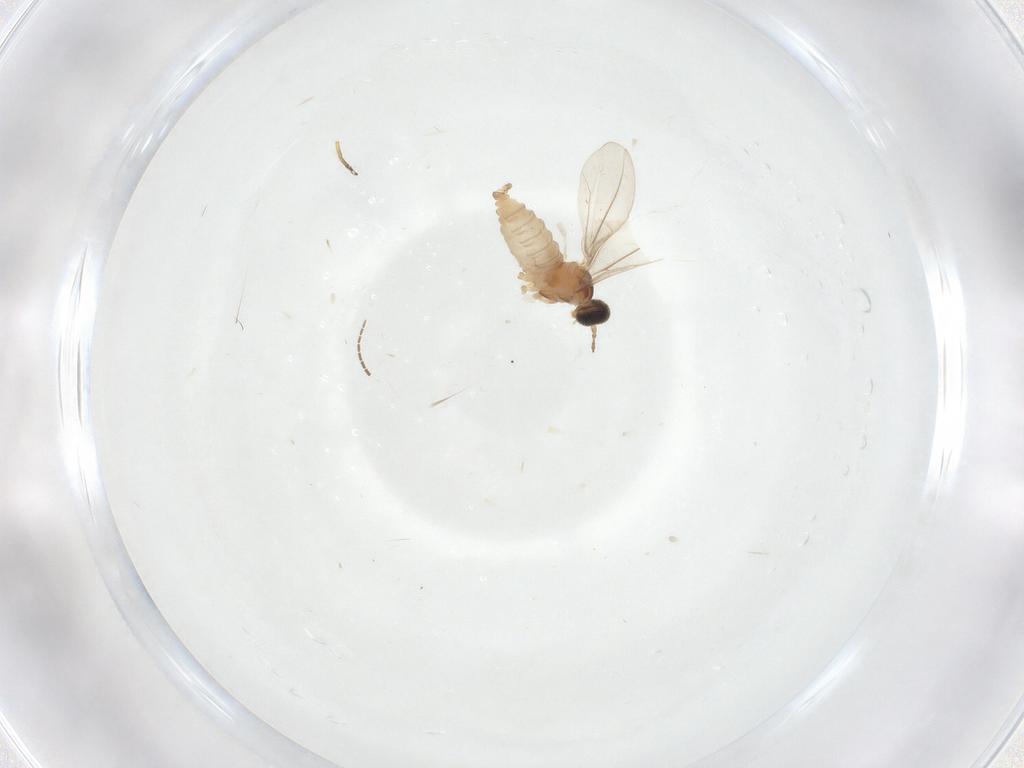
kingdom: Animalia
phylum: Arthropoda
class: Insecta
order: Diptera
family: Cecidomyiidae
